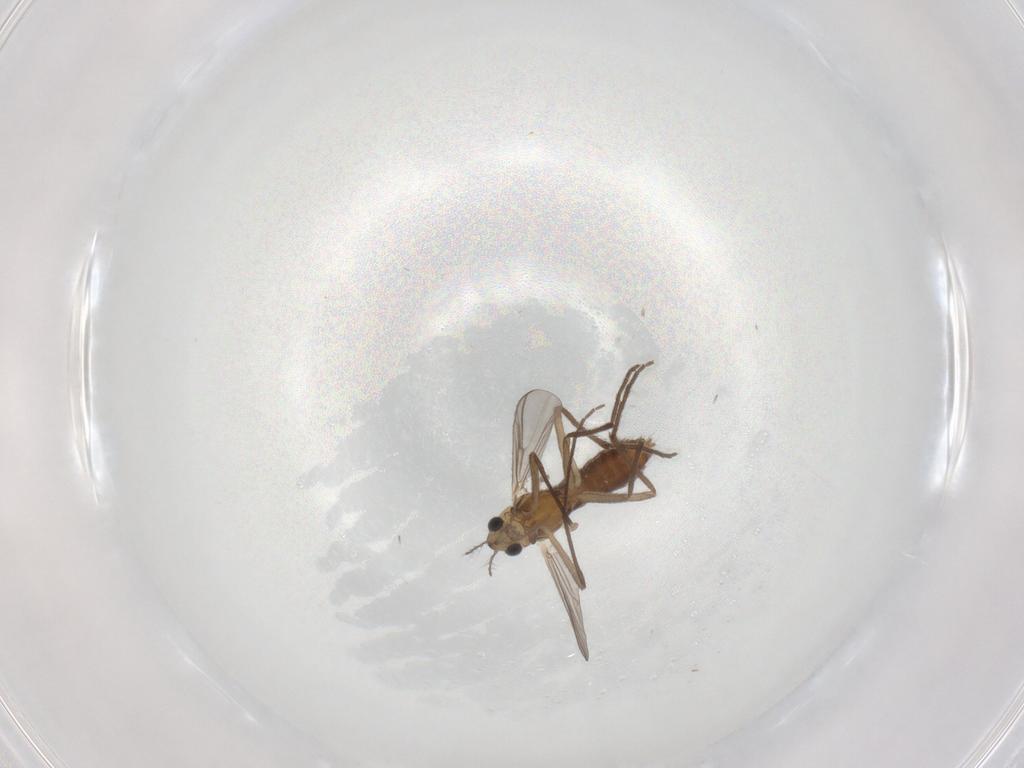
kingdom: Animalia
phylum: Arthropoda
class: Insecta
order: Diptera
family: Chironomidae
